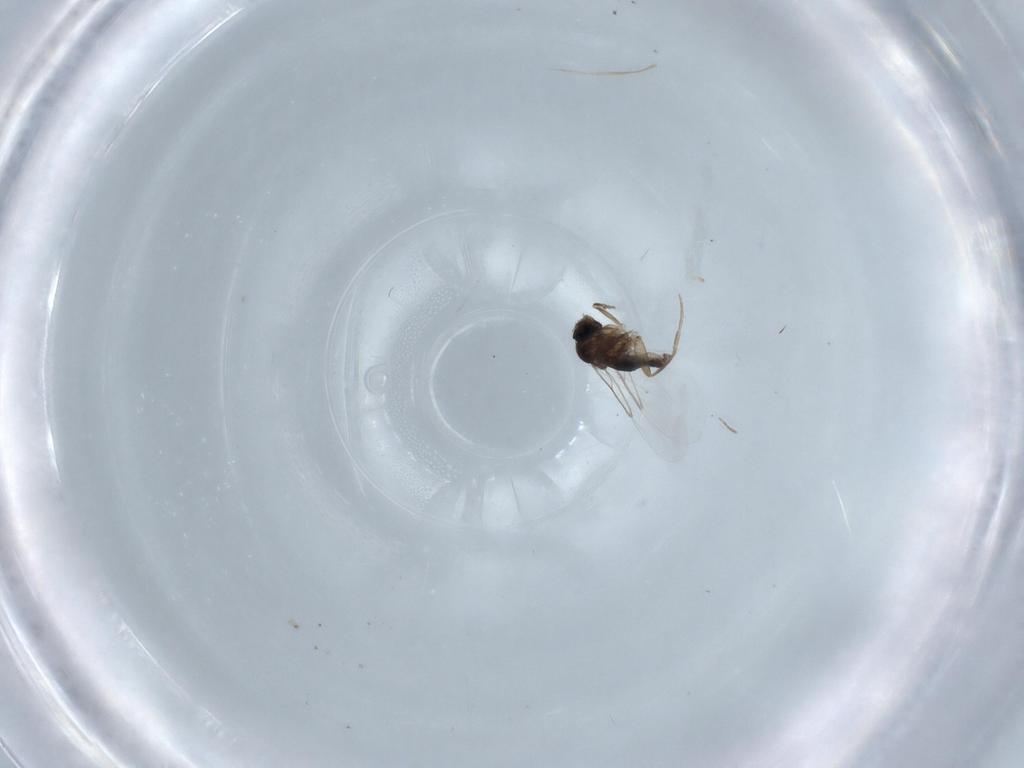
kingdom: Animalia
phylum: Arthropoda
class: Insecta
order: Diptera
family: Phoridae
